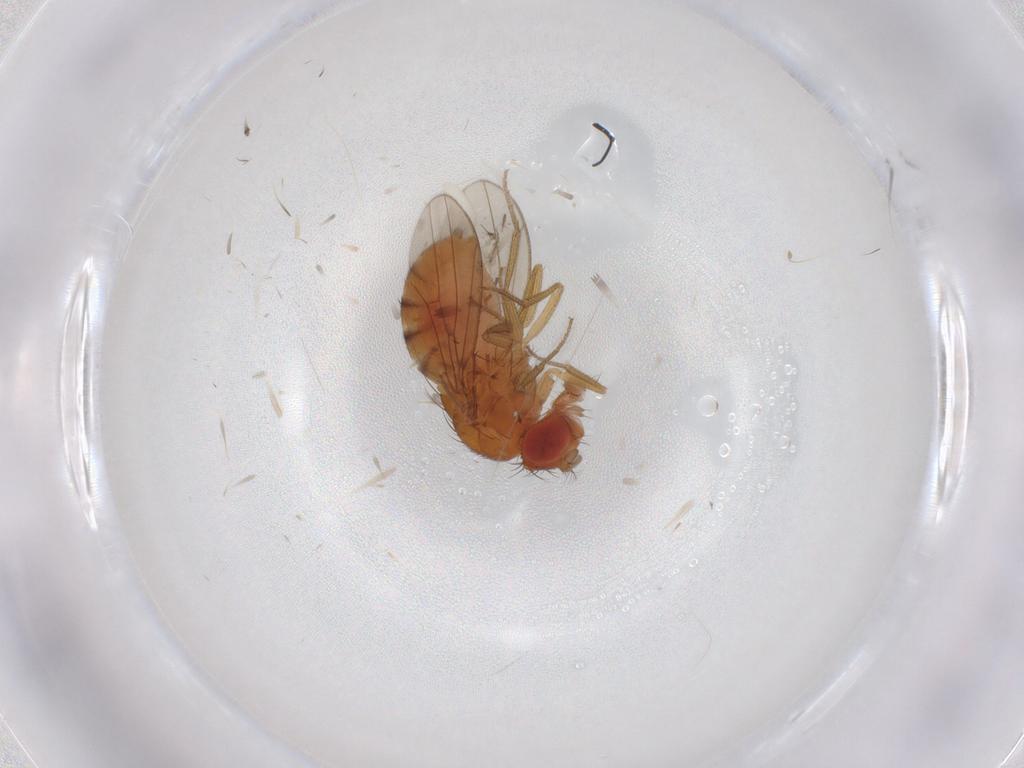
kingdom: Animalia
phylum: Arthropoda
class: Insecta
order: Diptera
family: Drosophilidae
